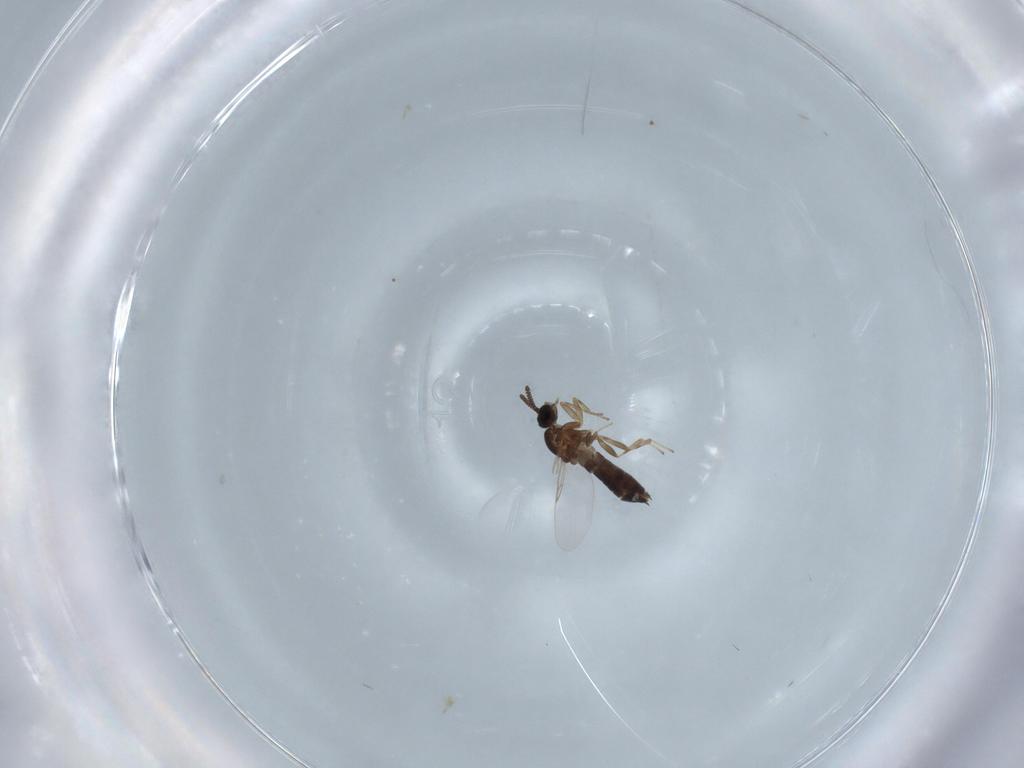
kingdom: Animalia
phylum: Arthropoda
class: Insecta
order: Diptera
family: Scatopsidae
